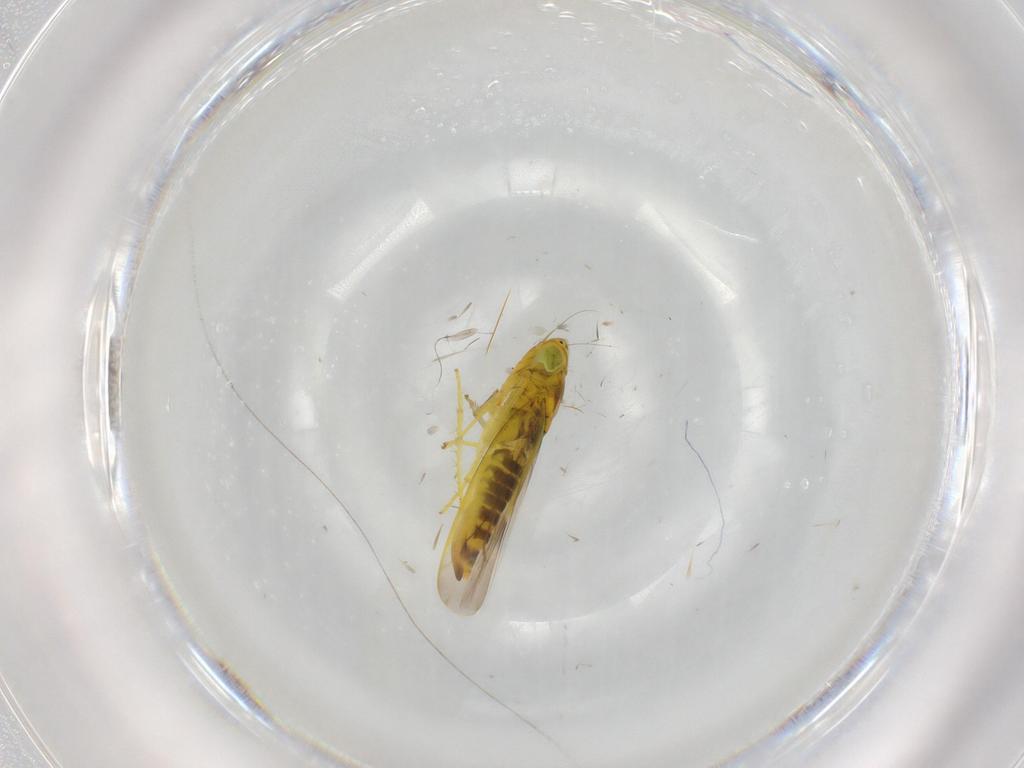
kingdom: Animalia
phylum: Arthropoda
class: Insecta
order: Hemiptera
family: Cicadellidae
